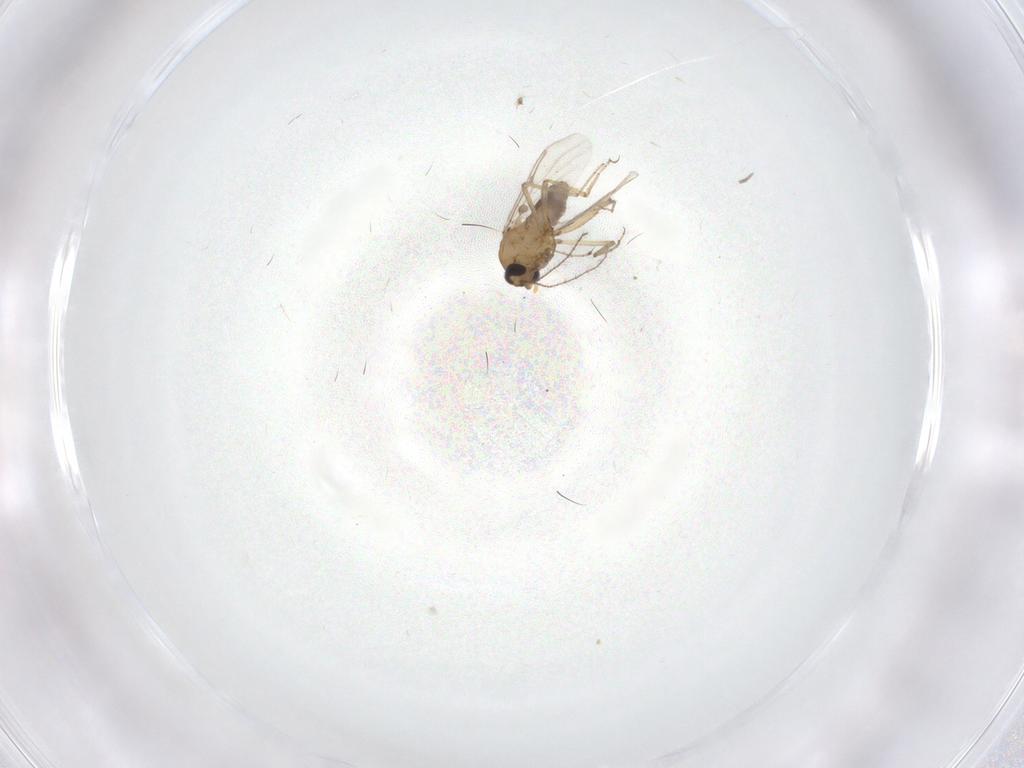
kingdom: Animalia
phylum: Arthropoda
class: Insecta
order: Diptera
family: Ceratopogonidae
